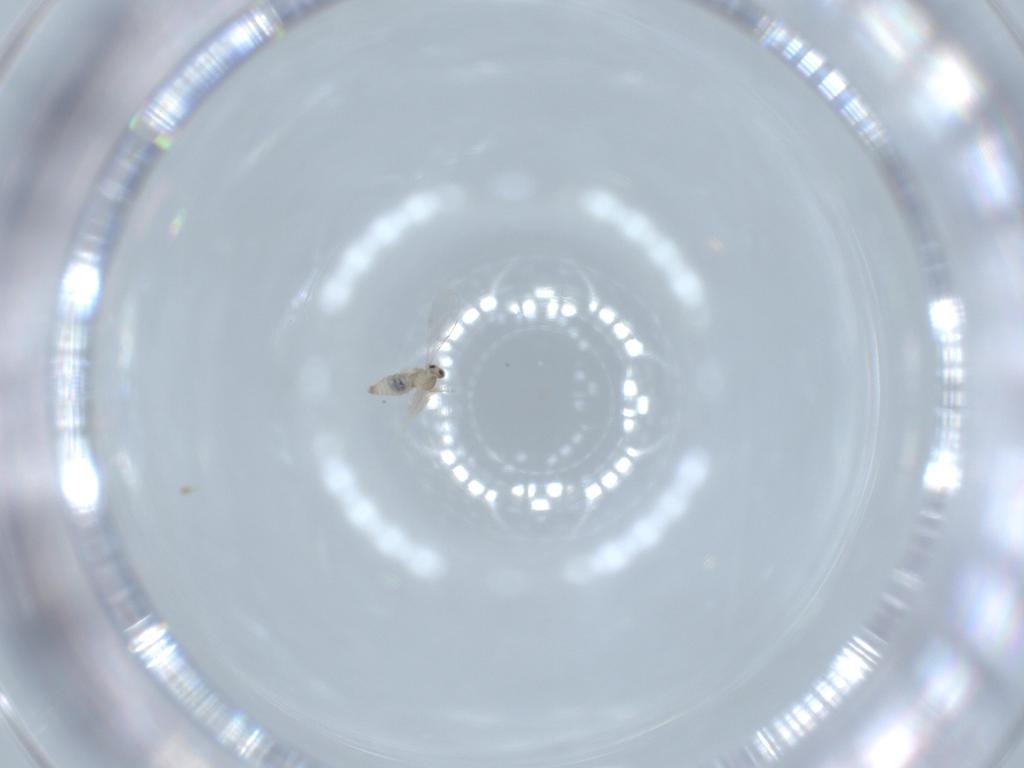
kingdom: Animalia
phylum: Arthropoda
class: Insecta
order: Diptera
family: Cecidomyiidae
